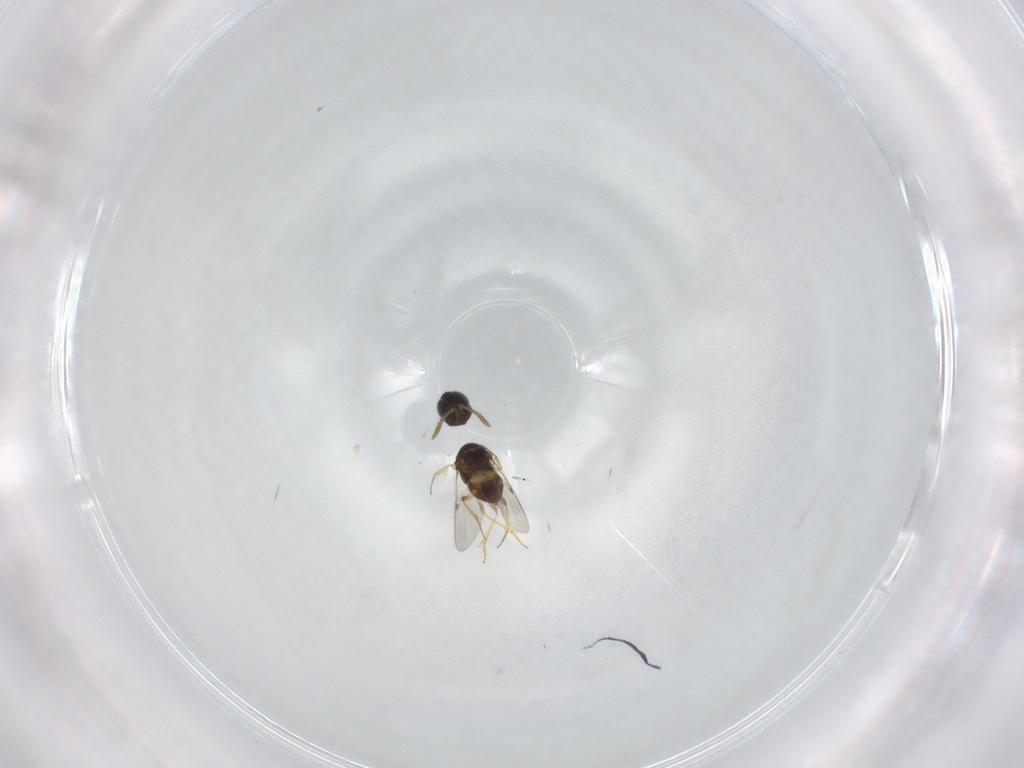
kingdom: Animalia
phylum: Arthropoda
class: Insecta
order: Hymenoptera
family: Encyrtidae
